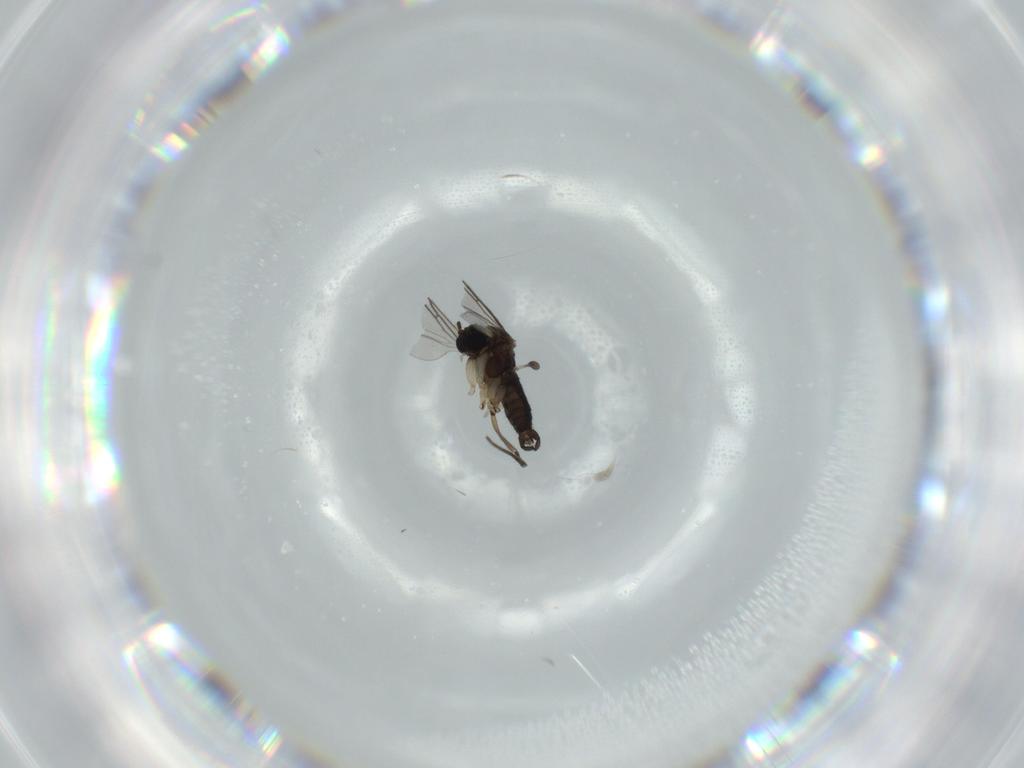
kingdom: Animalia
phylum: Arthropoda
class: Insecta
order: Diptera
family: Sciaridae
